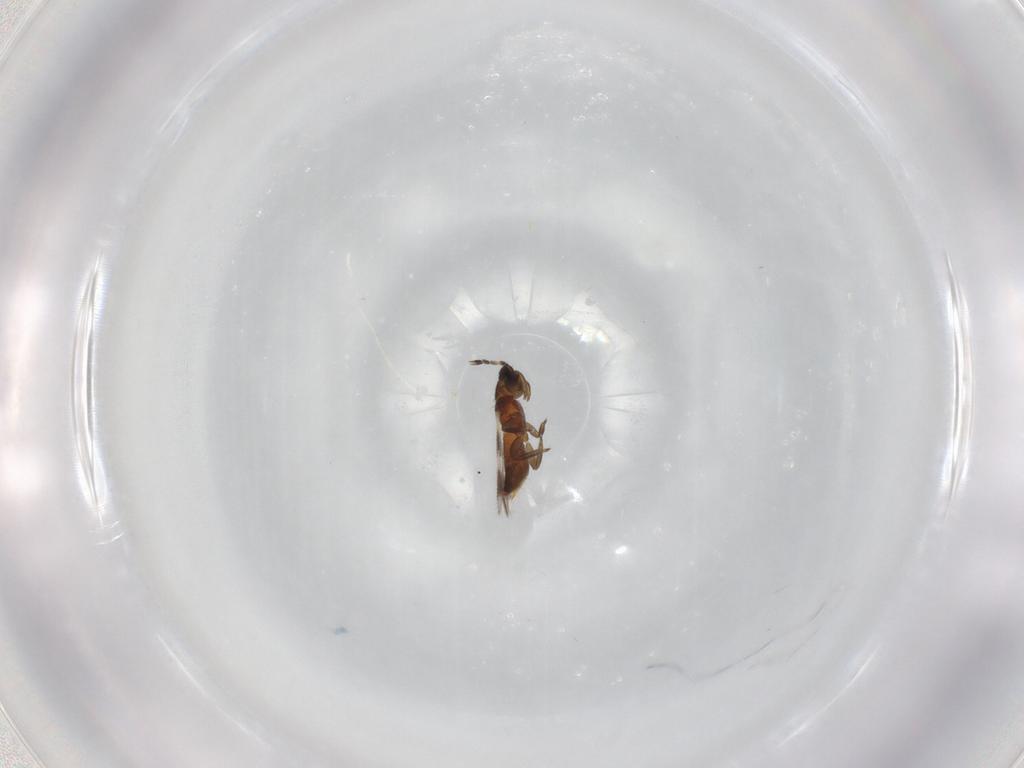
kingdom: Animalia
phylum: Arthropoda
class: Insecta
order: Thysanoptera
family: Aeolothripidae
